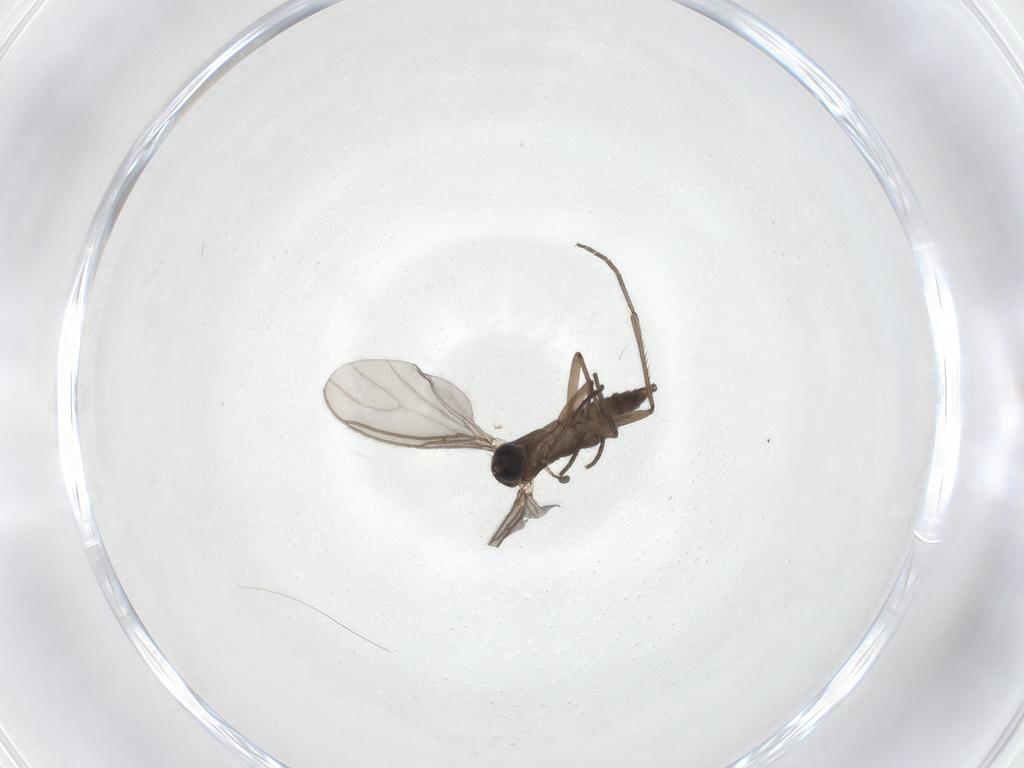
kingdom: Animalia
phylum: Arthropoda
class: Insecta
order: Diptera
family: Sciaridae
